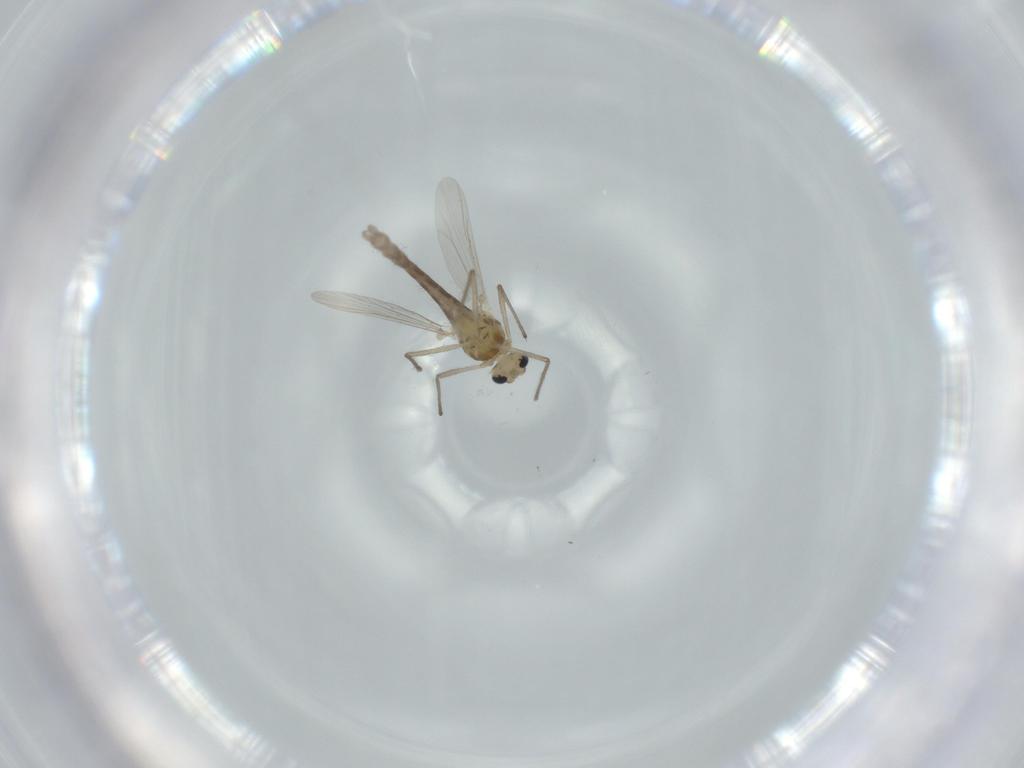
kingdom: Animalia
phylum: Arthropoda
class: Insecta
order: Diptera
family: Chironomidae
